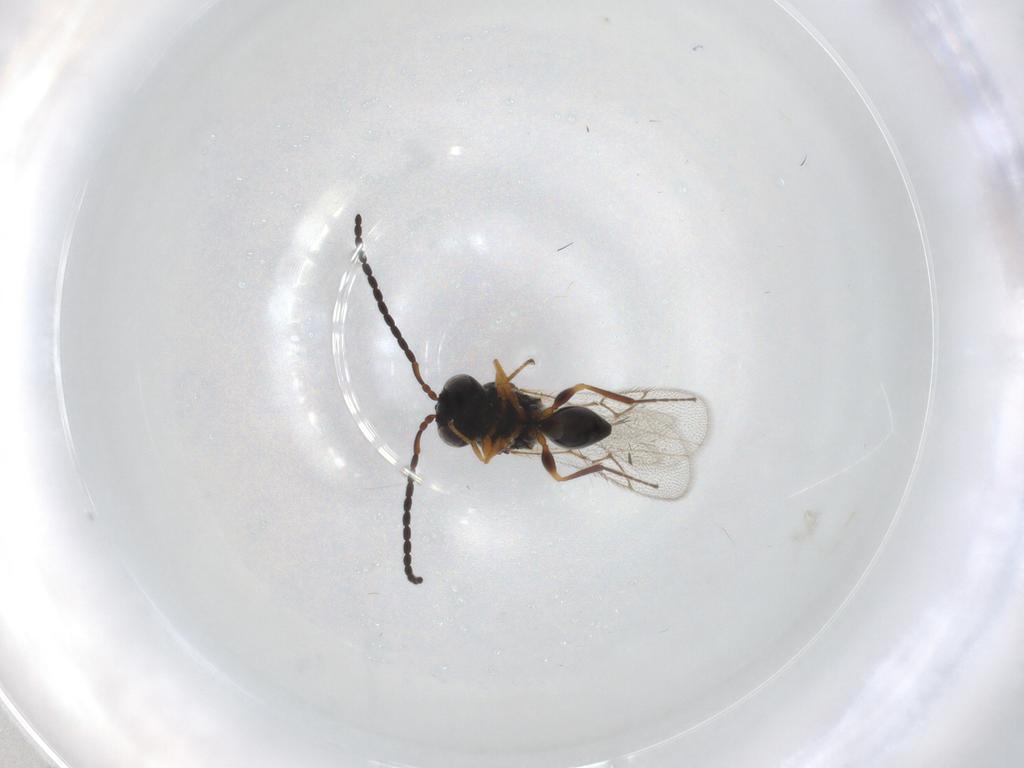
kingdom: Animalia
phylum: Arthropoda
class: Insecta
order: Hymenoptera
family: Figitidae
